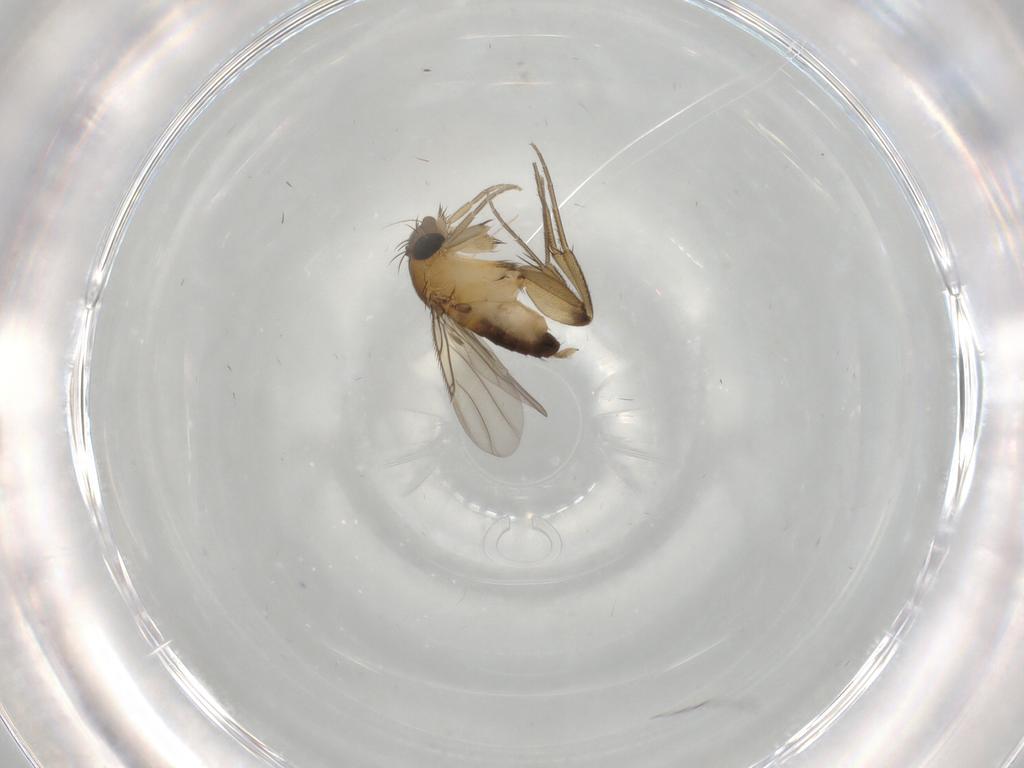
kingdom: Animalia
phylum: Arthropoda
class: Insecta
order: Diptera
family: Phoridae
